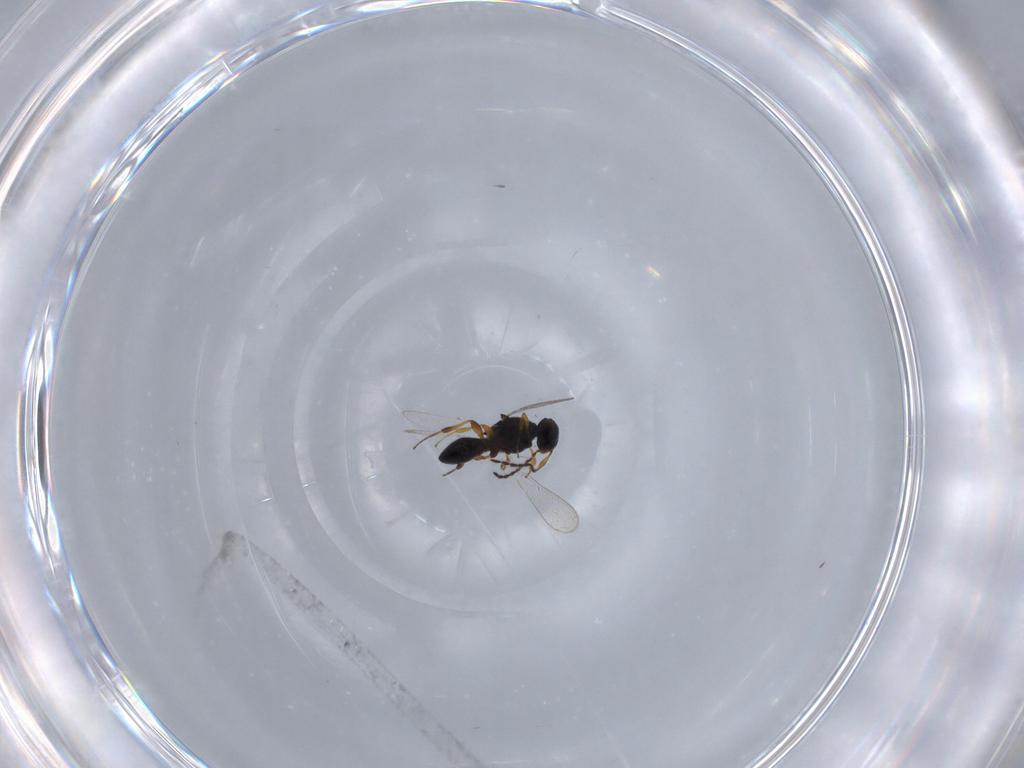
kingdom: Animalia
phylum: Arthropoda
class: Insecta
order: Hymenoptera
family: Platygastridae
